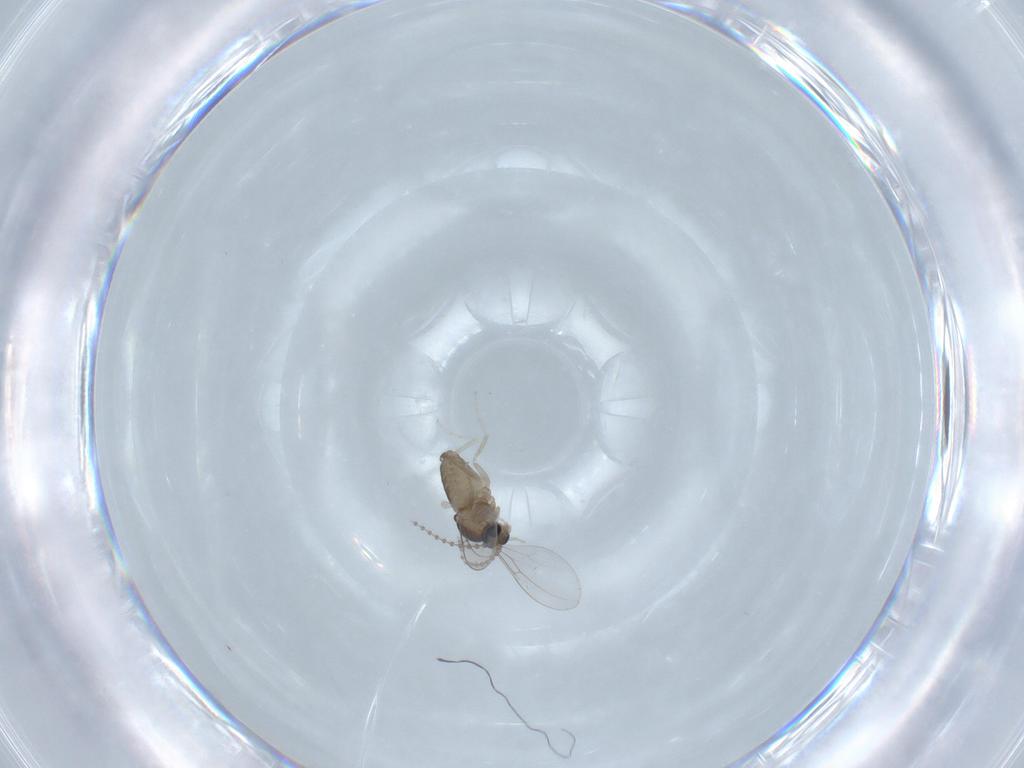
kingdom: Animalia
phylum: Arthropoda
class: Insecta
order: Diptera
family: Cecidomyiidae
